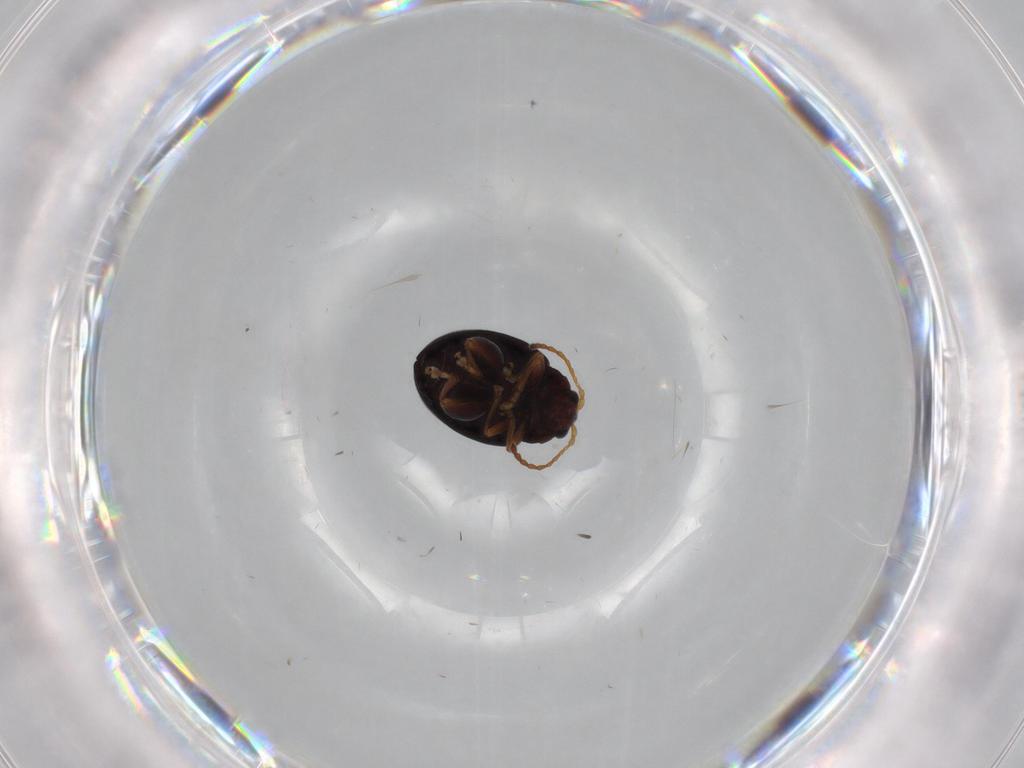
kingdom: Animalia
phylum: Arthropoda
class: Insecta
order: Coleoptera
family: Chrysomelidae
